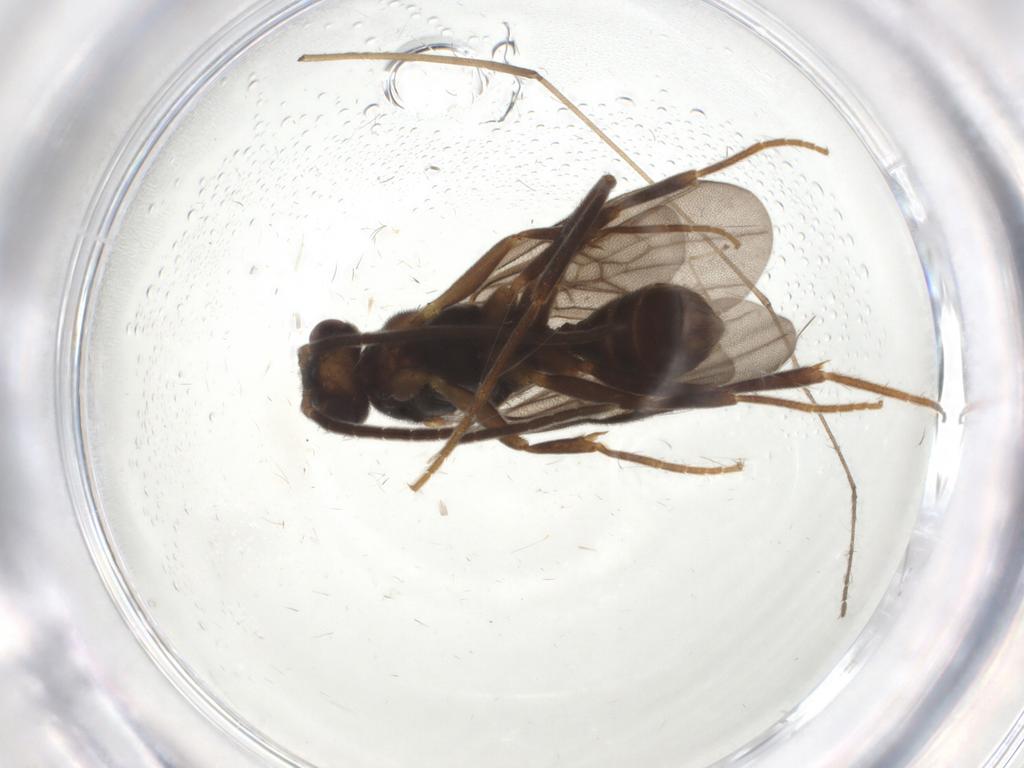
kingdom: Animalia
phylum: Arthropoda
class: Insecta
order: Hymenoptera
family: Formicidae
